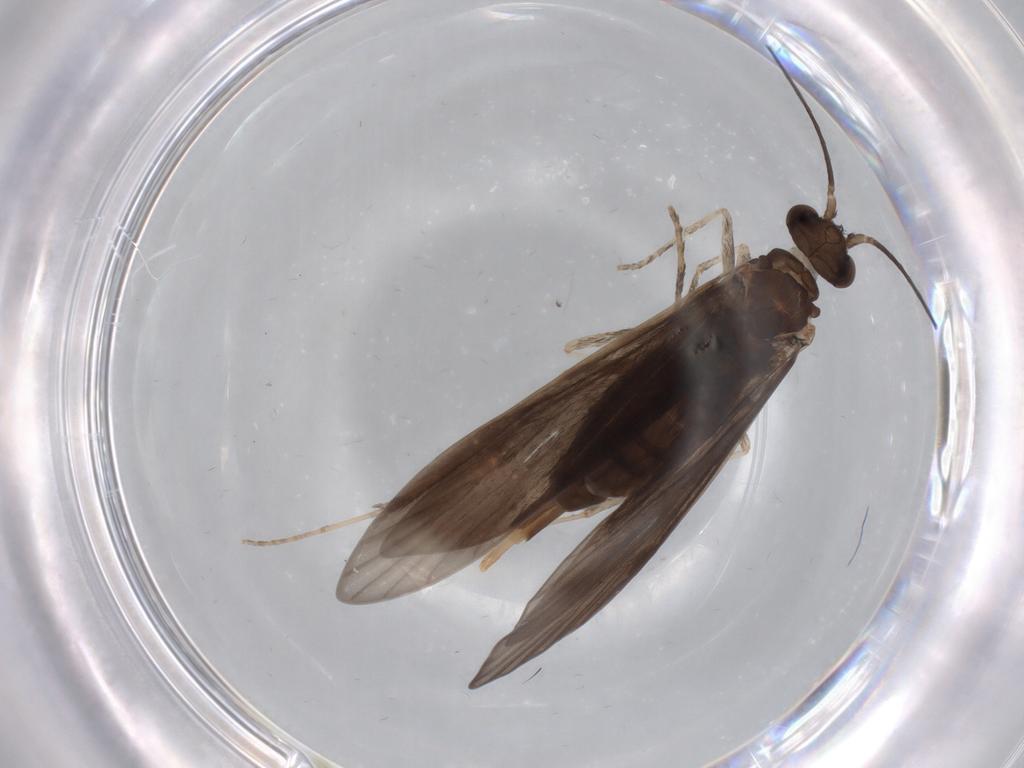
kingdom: Animalia
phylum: Arthropoda
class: Insecta
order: Trichoptera
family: Xiphocentronidae
